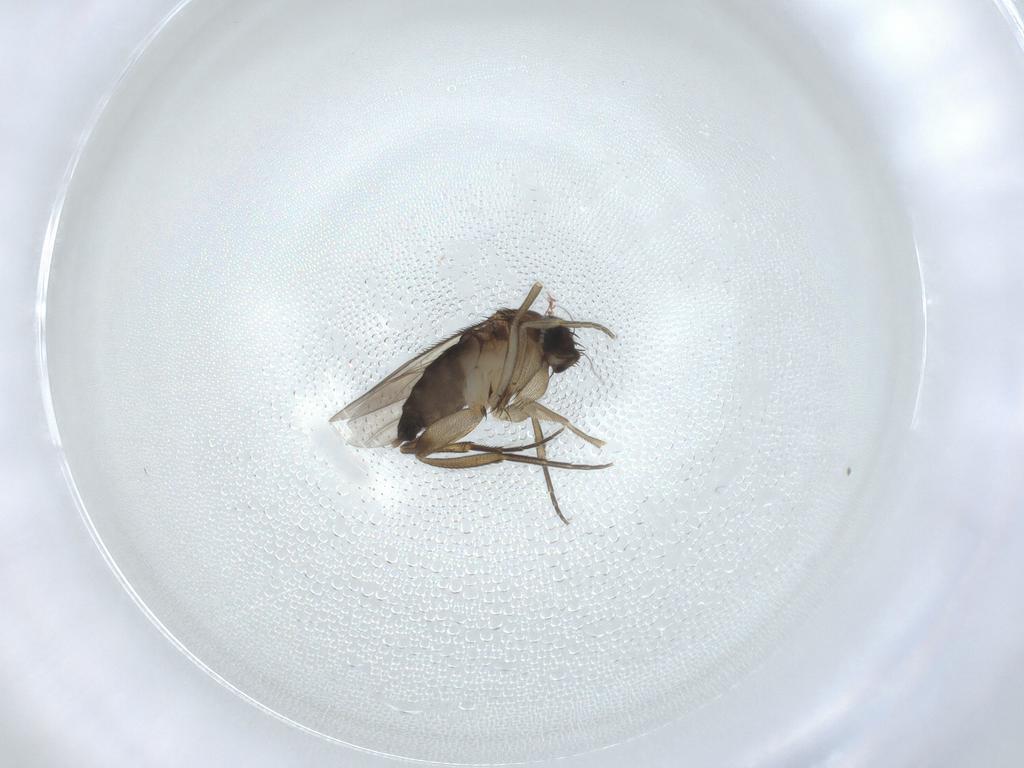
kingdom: Animalia
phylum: Arthropoda
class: Insecta
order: Diptera
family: Phoridae
